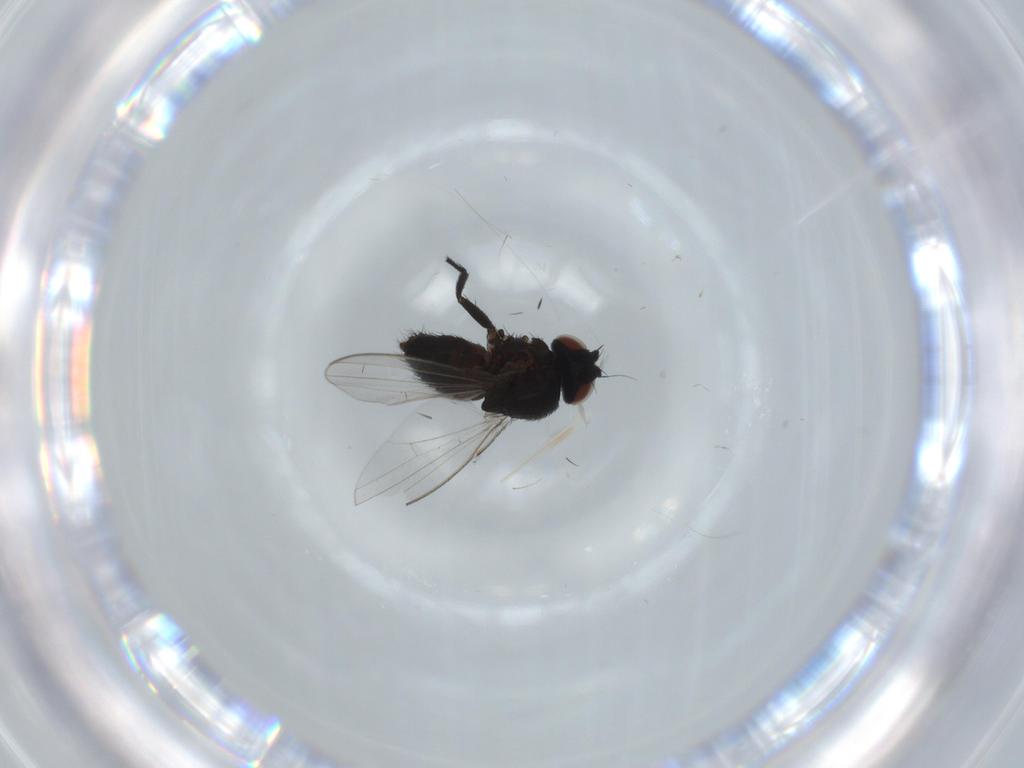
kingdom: Animalia
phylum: Arthropoda
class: Insecta
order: Diptera
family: Milichiidae
